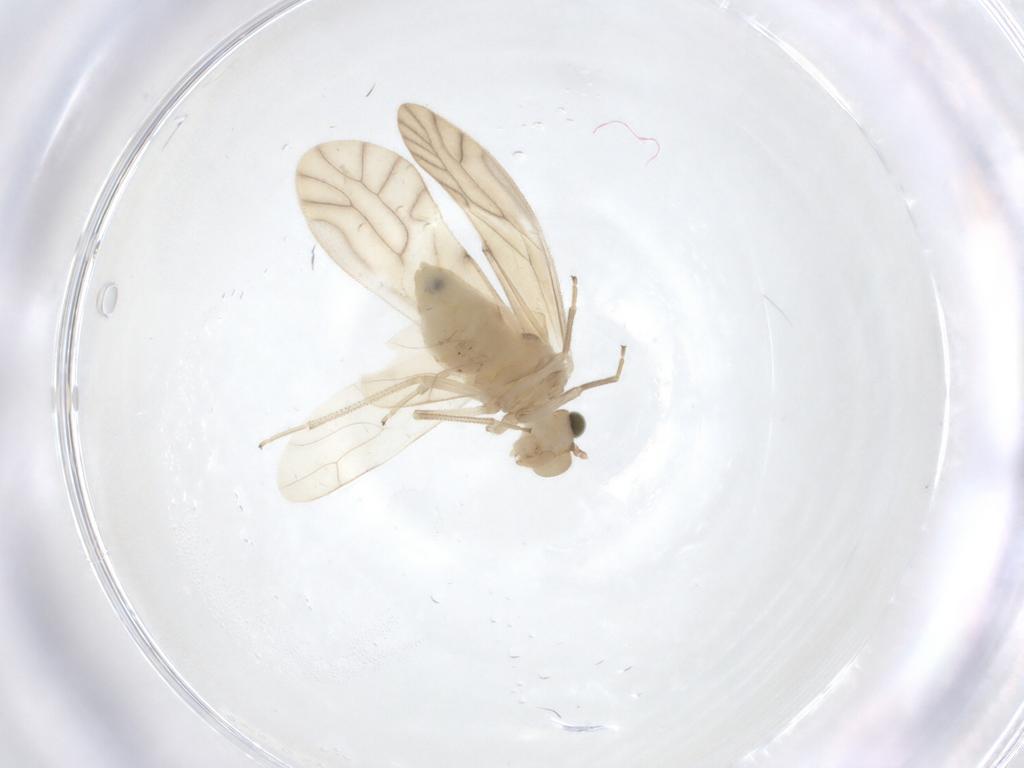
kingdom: Animalia
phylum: Arthropoda
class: Insecta
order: Psocodea
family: Caeciliusidae
